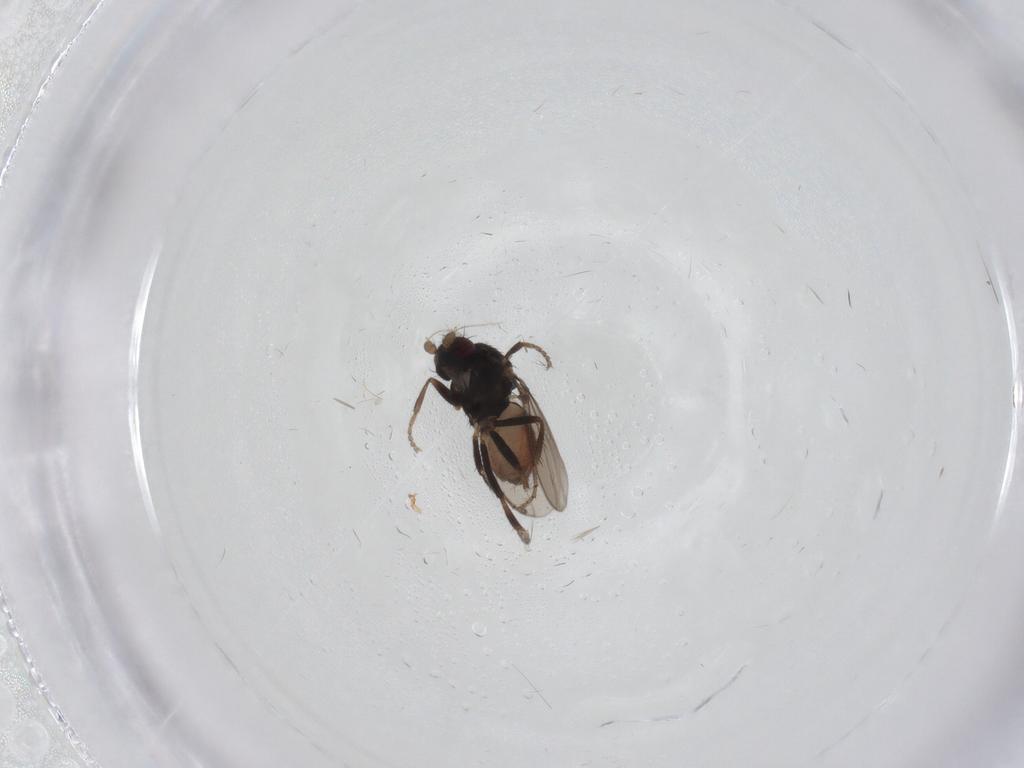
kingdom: Animalia
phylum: Arthropoda
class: Insecta
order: Diptera
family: Sphaeroceridae
